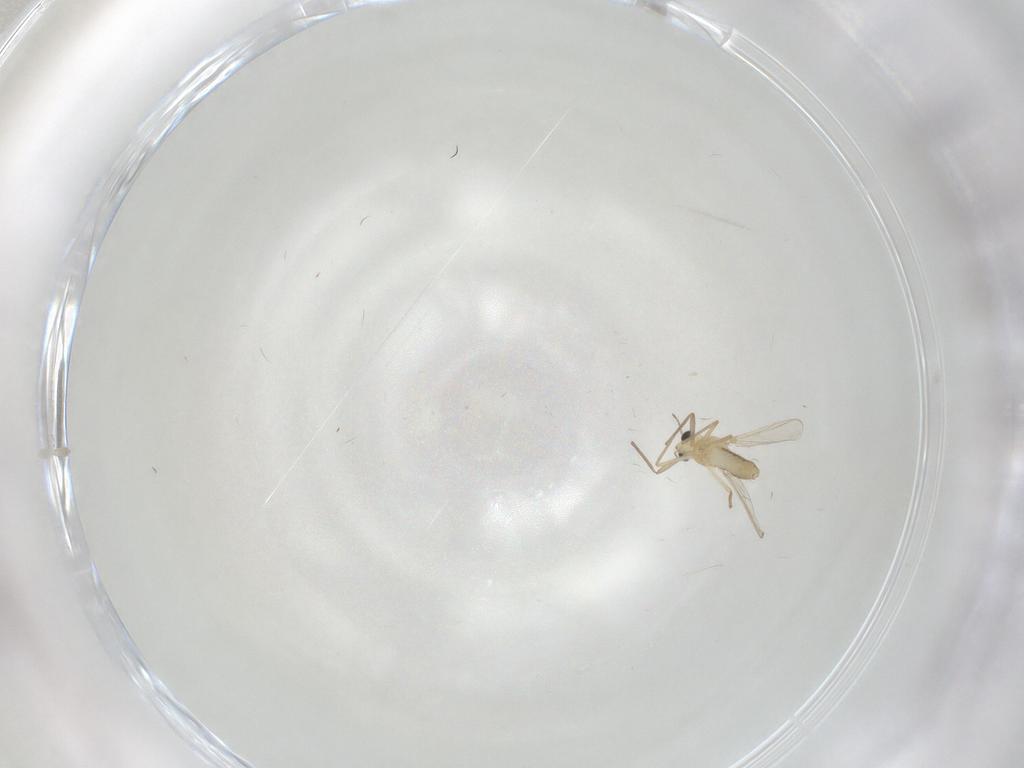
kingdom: Animalia
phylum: Arthropoda
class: Insecta
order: Diptera
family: Chironomidae
